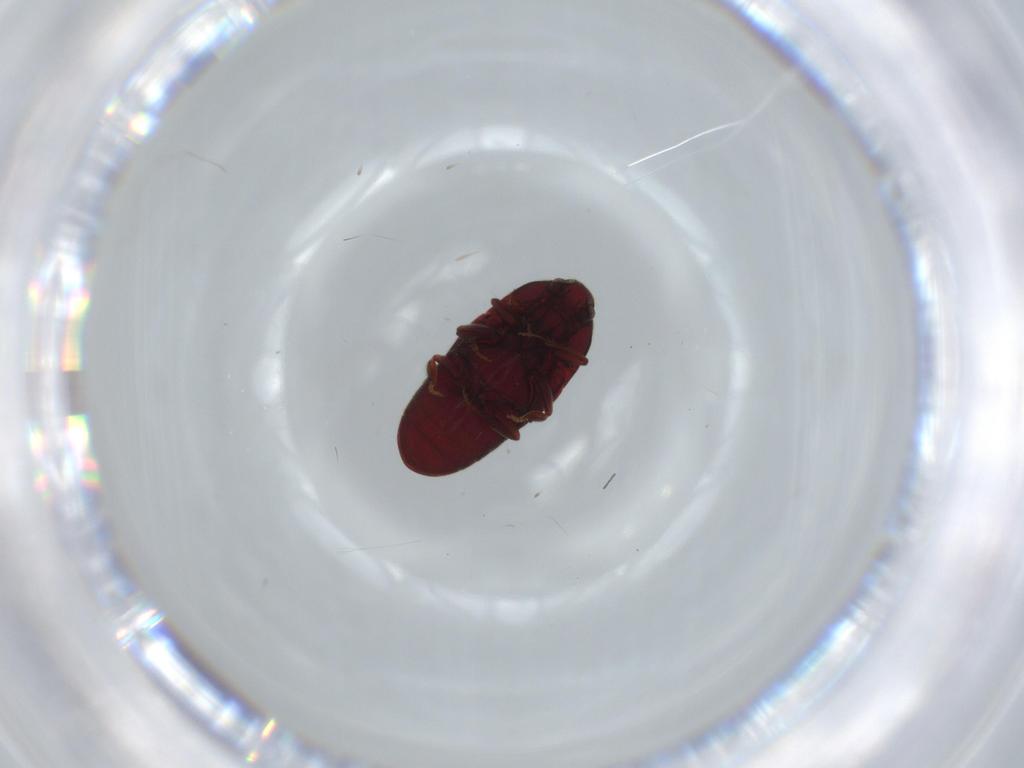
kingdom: Animalia
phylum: Arthropoda
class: Insecta
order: Coleoptera
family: Throscidae
